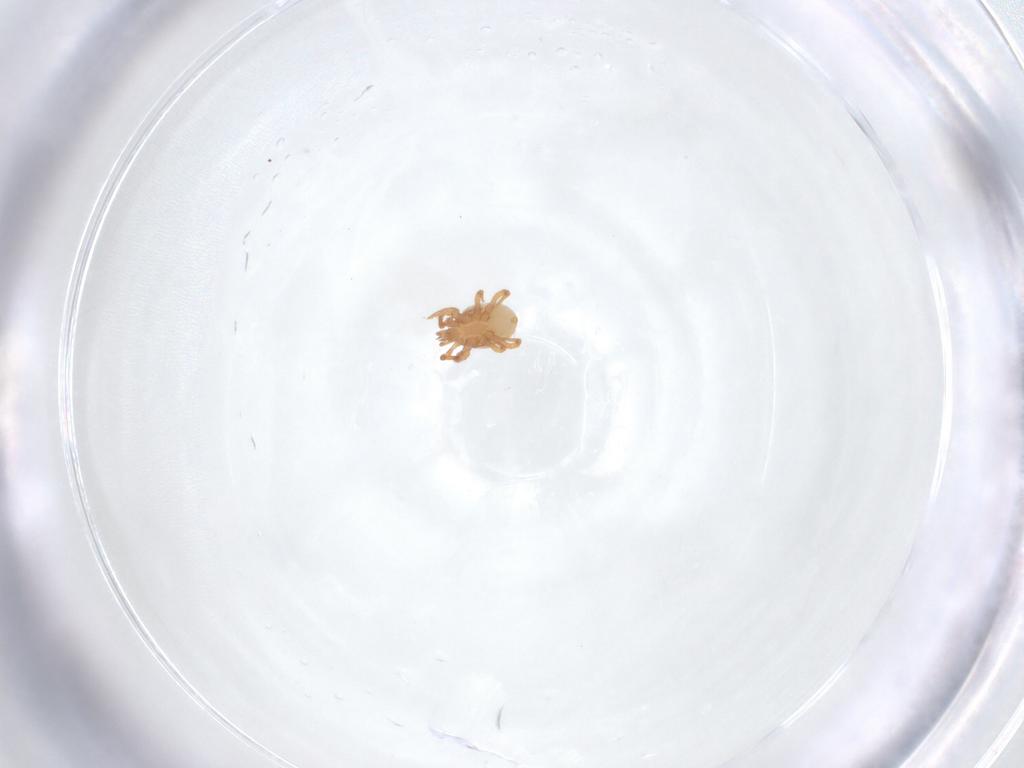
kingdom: Animalia
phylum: Arthropoda
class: Arachnida
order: Mesostigmata
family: Parasitidae
